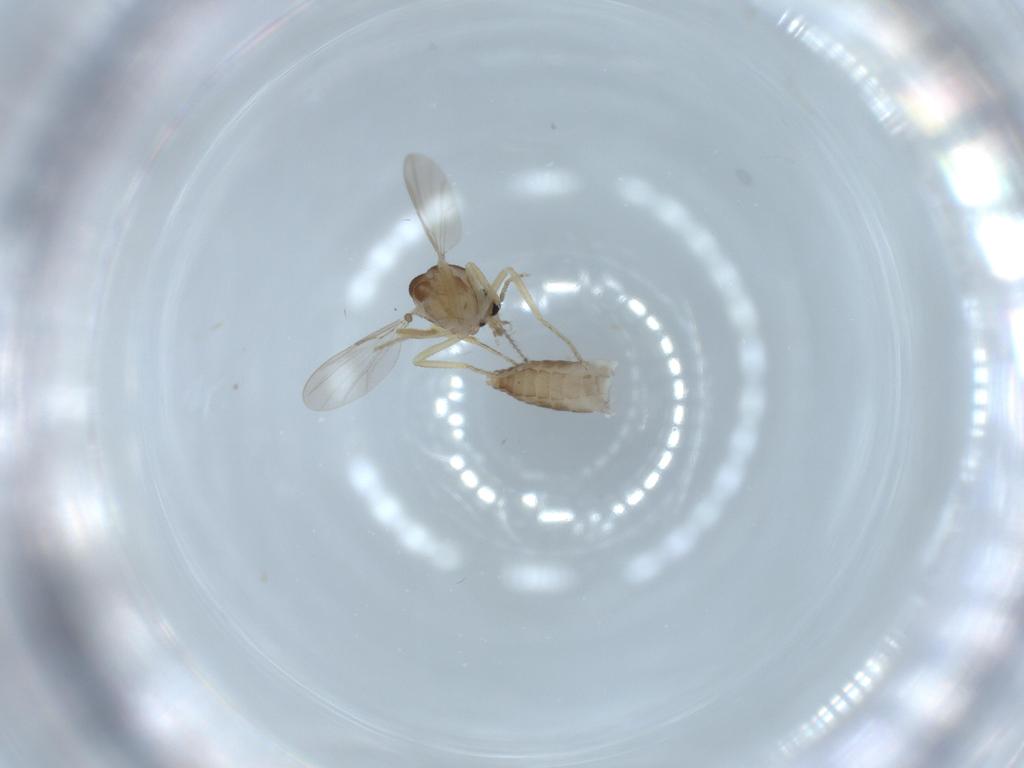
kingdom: Animalia
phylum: Arthropoda
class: Insecta
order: Diptera
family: Ceratopogonidae
